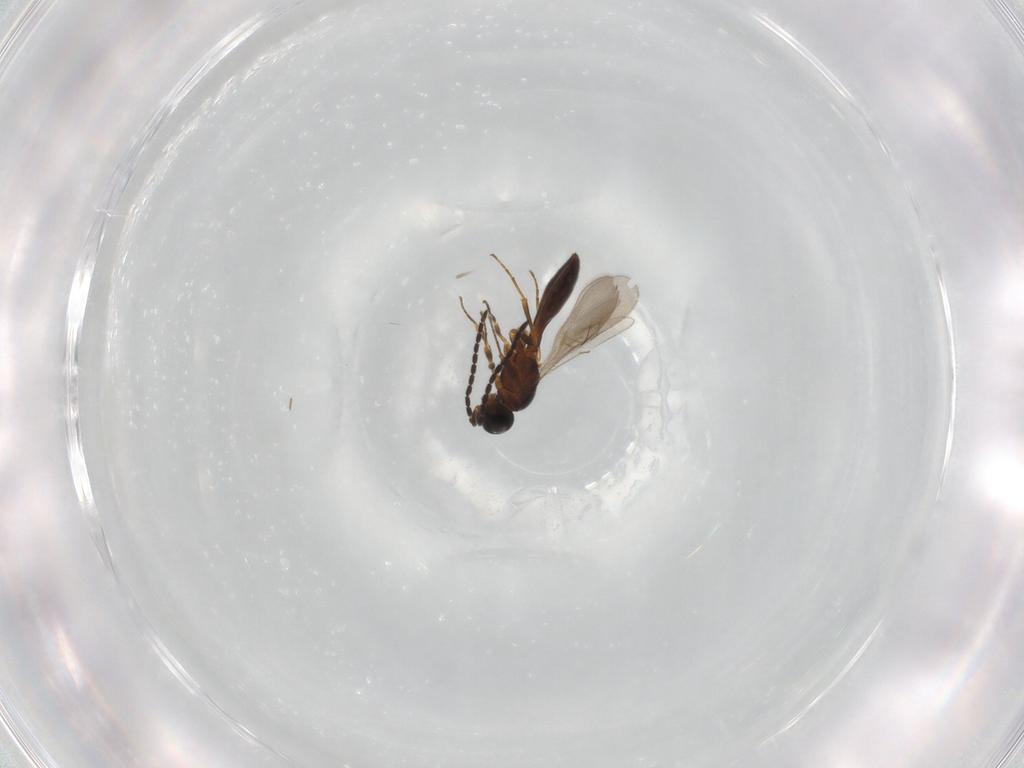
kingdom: Animalia
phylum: Arthropoda
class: Insecta
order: Hymenoptera
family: Scelionidae
